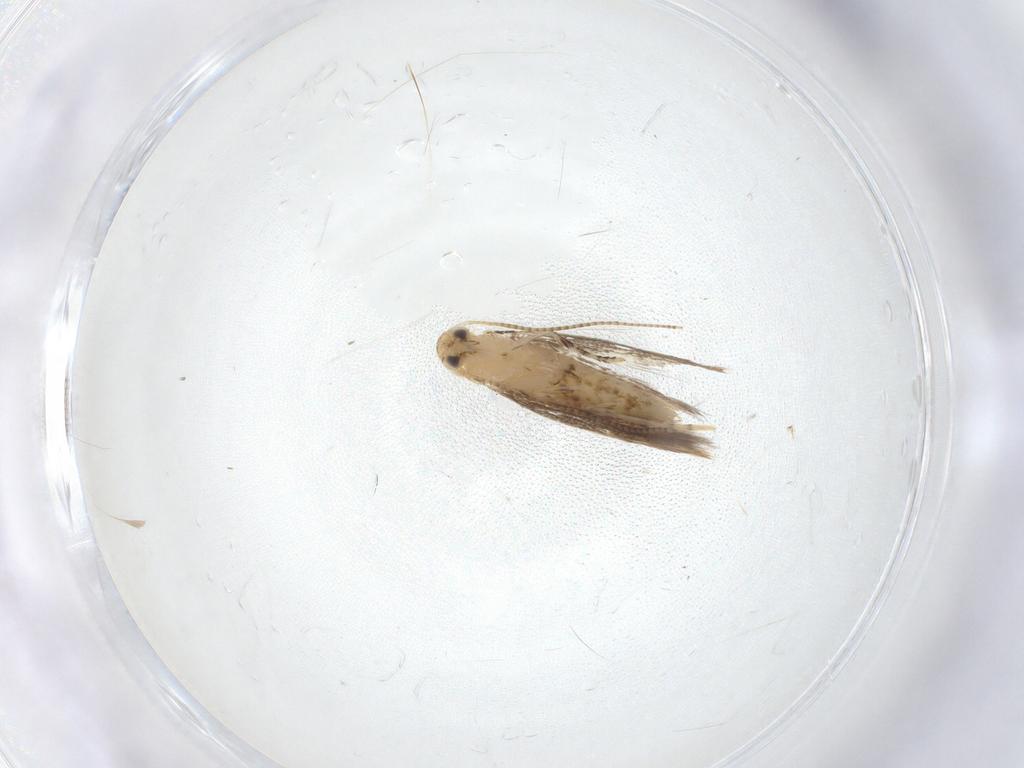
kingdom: Animalia
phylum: Arthropoda
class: Insecta
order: Lepidoptera
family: Gracillariidae
